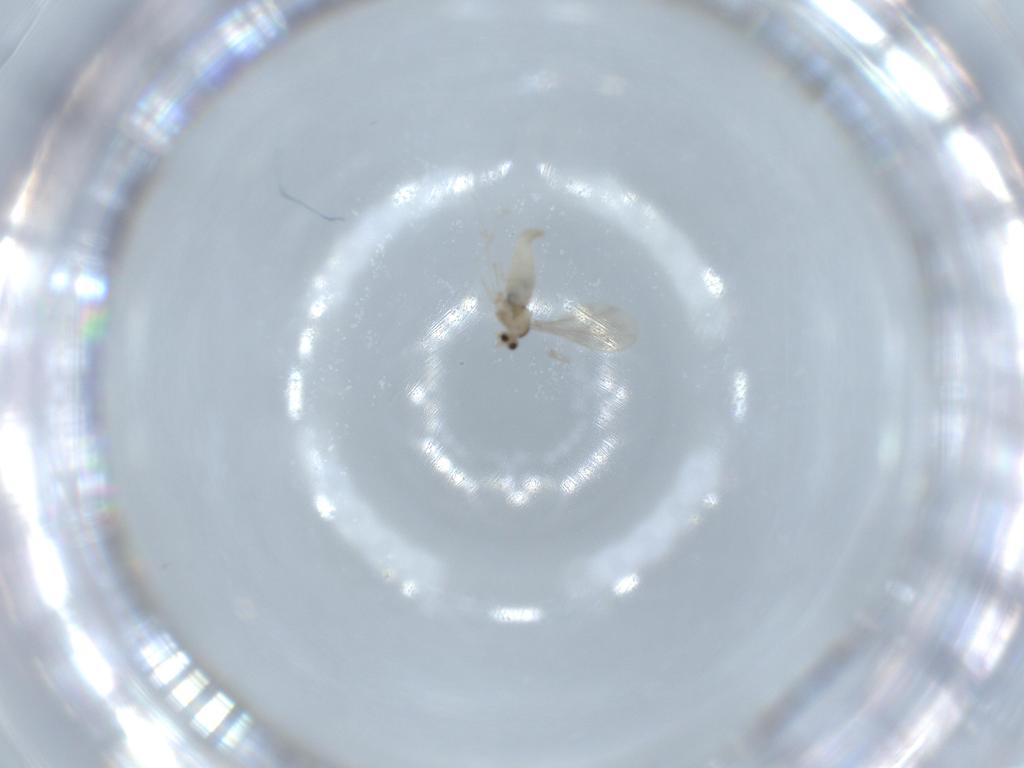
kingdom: Animalia
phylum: Arthropoda
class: Insecta
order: Diptera
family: Cecidomyiidae
